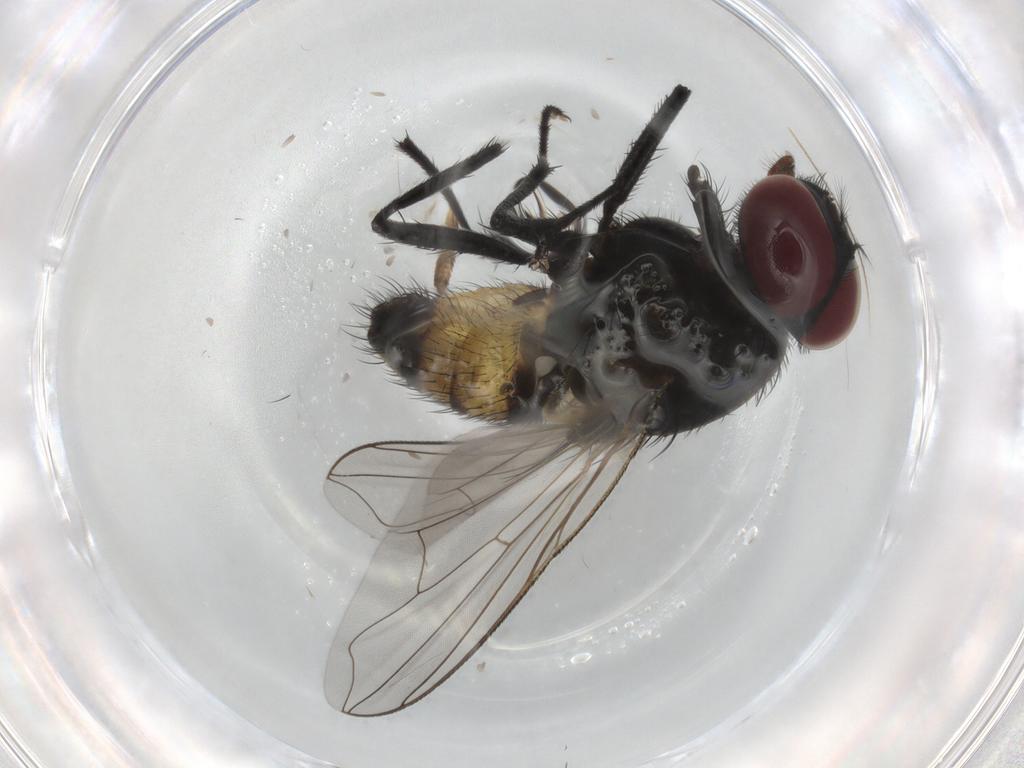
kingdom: Animalia
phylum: Arthropoda
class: Insecta
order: Diptera
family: Muscidae
